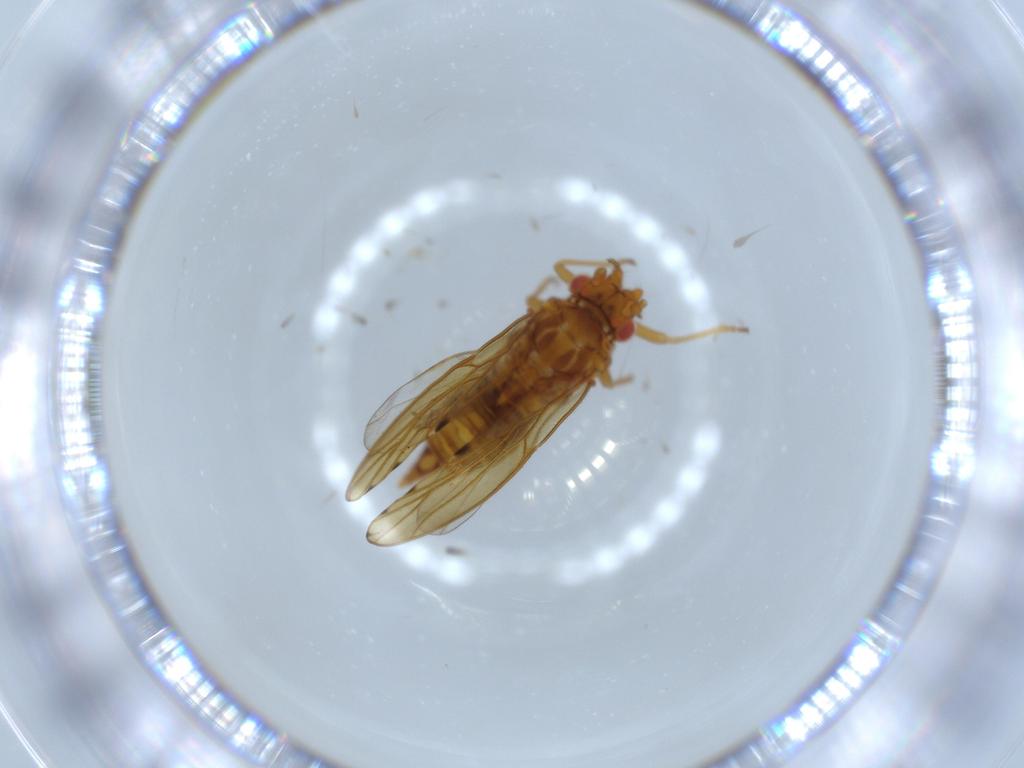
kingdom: Animalia
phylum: Arthropoda
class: Insecta
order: Hemiptera
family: Psylloidea_incertae_sedis
